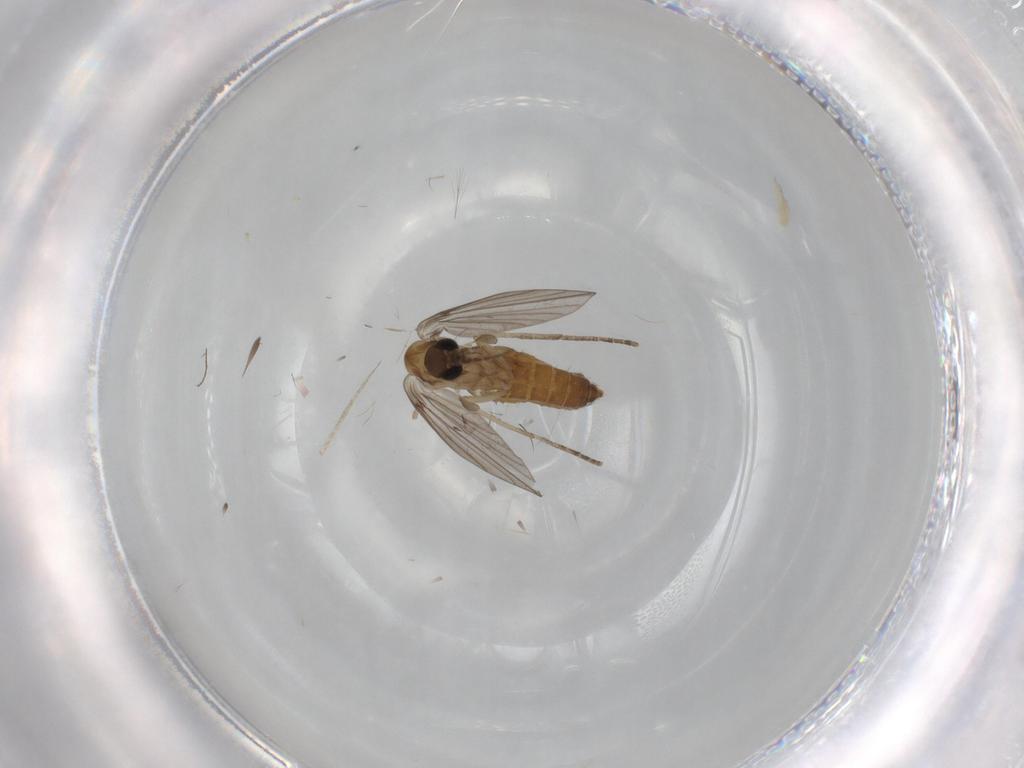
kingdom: Animalia
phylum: Arthropoda
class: Insecta
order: Diptera
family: Chironomidae
